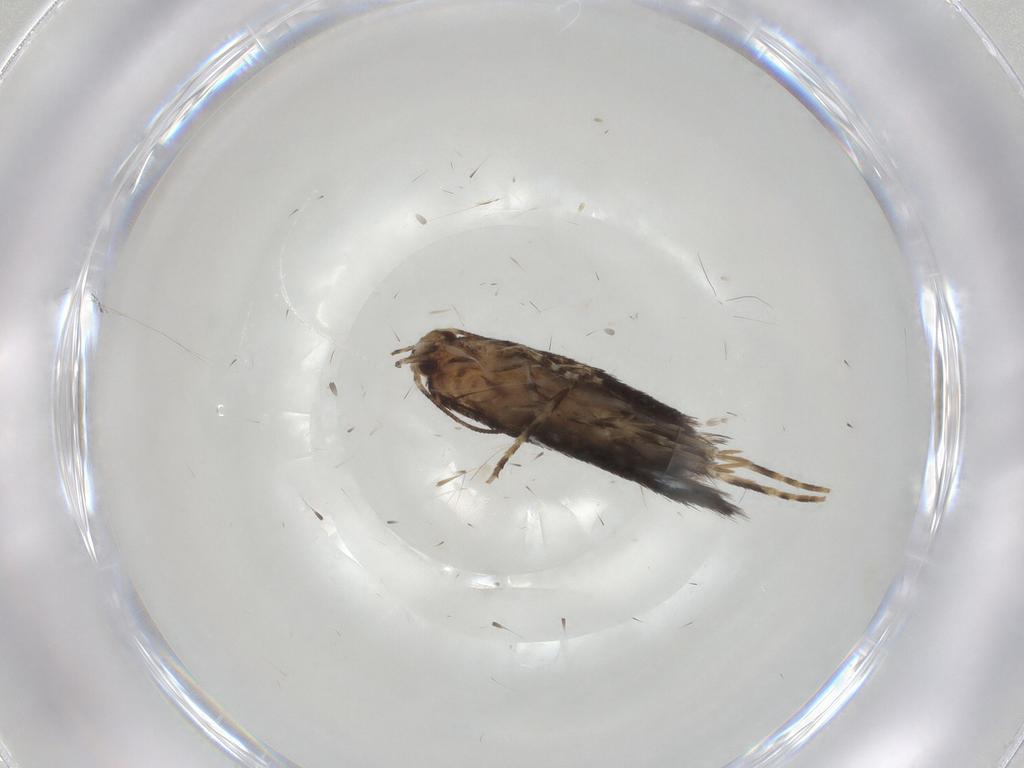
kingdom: Animalia
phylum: Arthropoda
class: Insecta
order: Lepidoptera
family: Elachistidae
